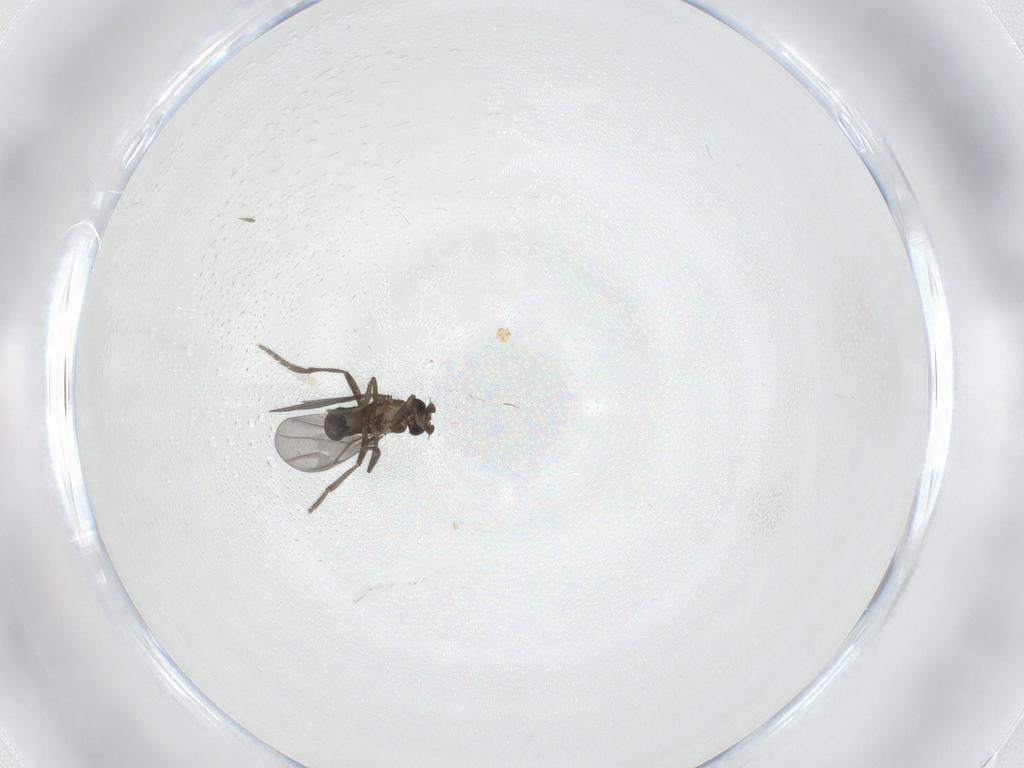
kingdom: Animalia
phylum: Arthropoda
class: Insecta
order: Diptera
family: Phoridae
